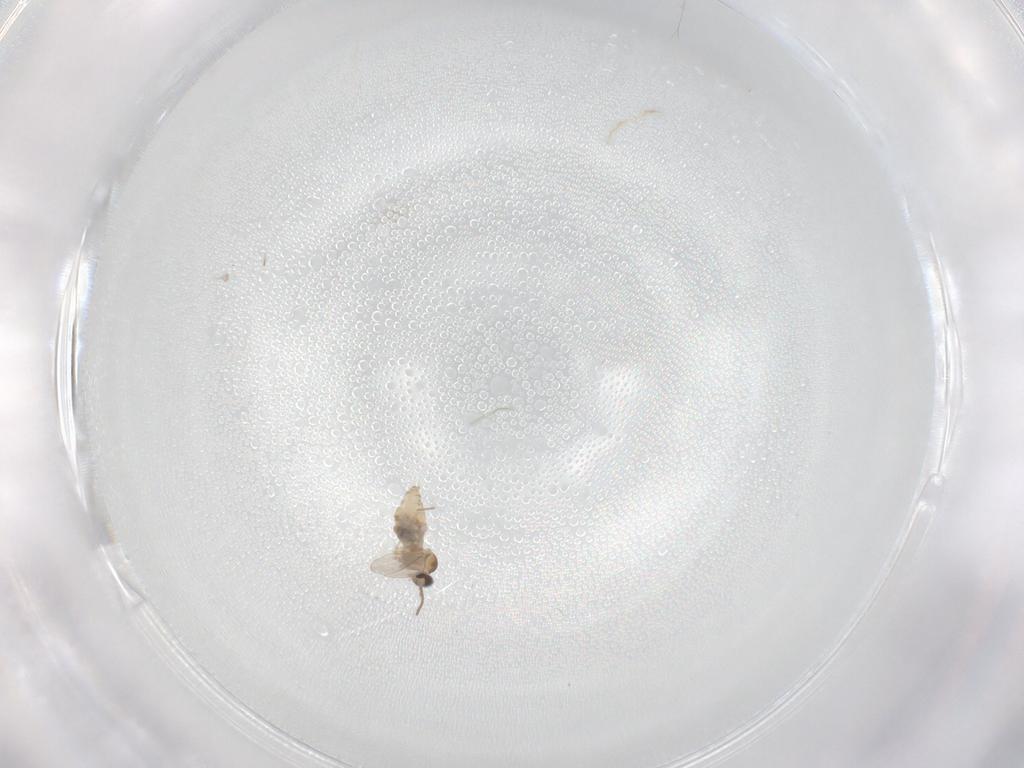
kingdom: Animalia
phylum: Arthropoda
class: Insecta
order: Diptera
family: Cecidomyiidae
